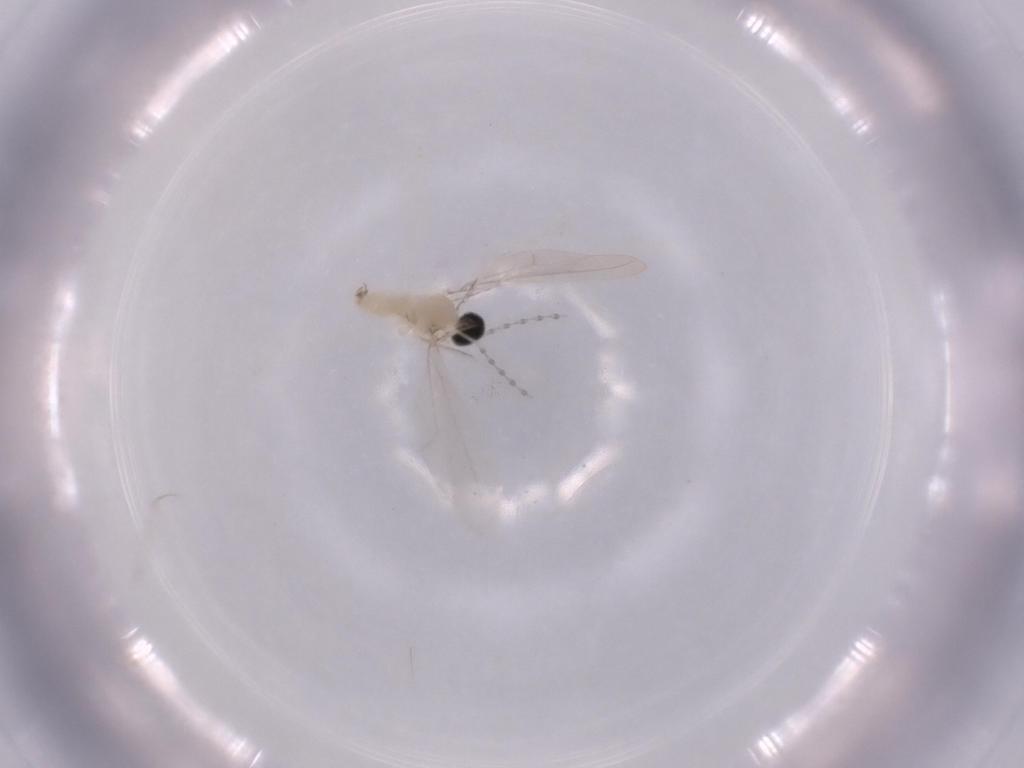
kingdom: Animalia
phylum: Arthropoda
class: Insecta
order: Diptera
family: Cecidomyiidae
